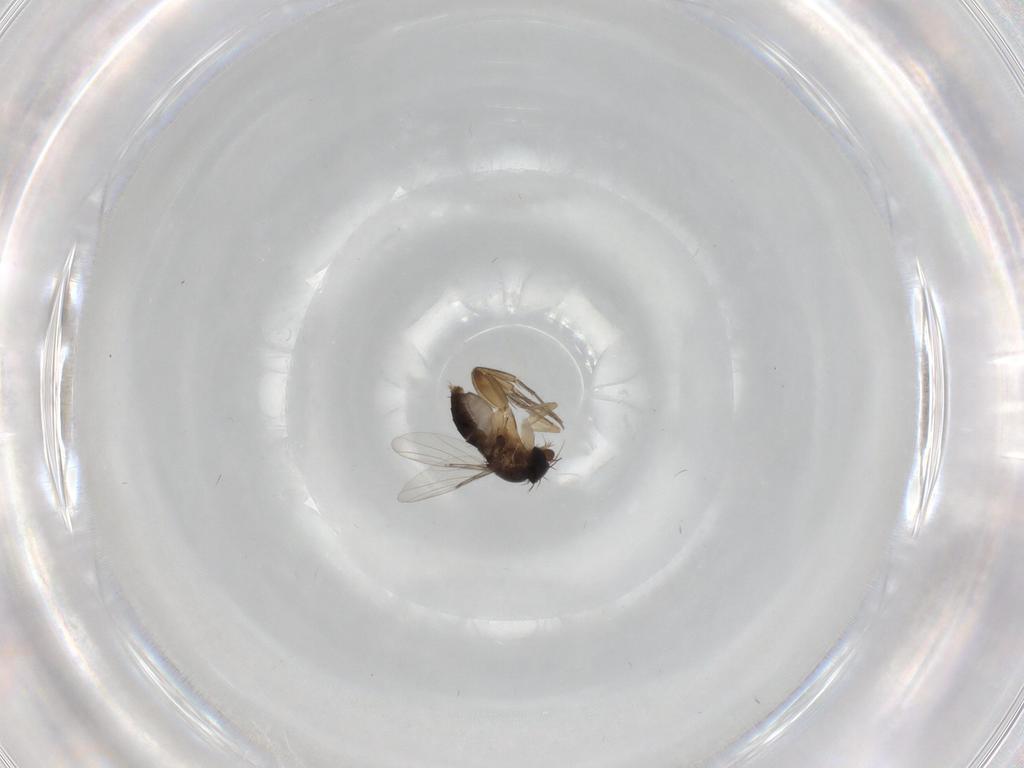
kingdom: Animalia
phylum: Arthropoda
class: Insecta
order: Diptera
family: Phoridae
